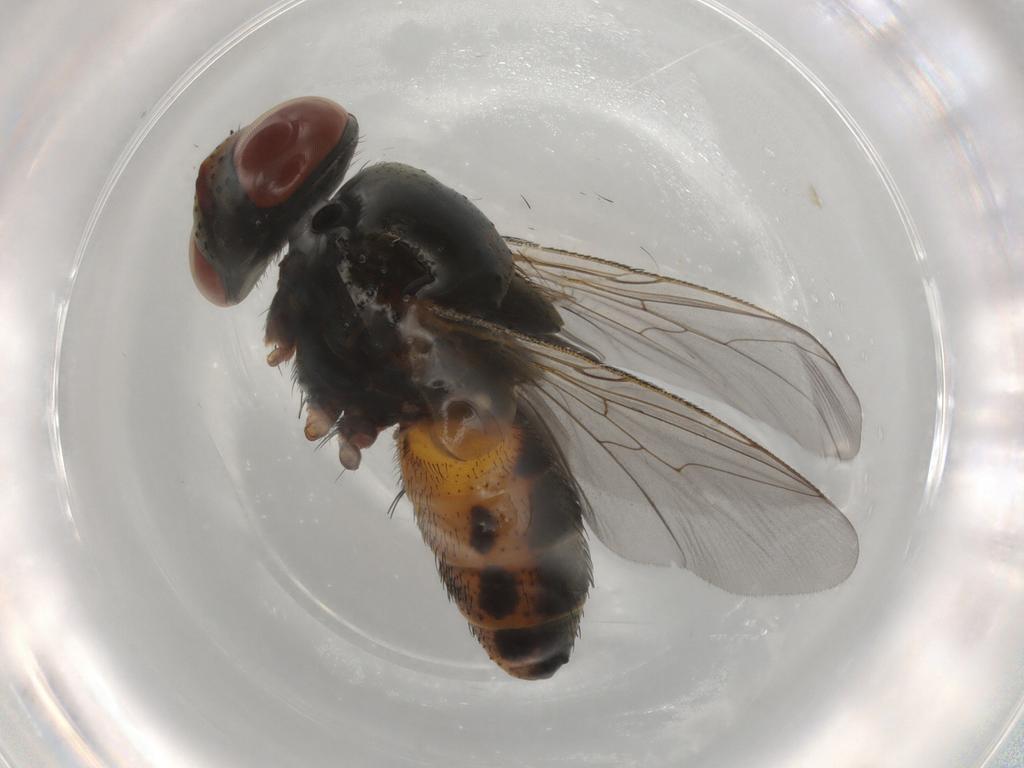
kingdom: Animalia
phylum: Arthropoda
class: Insecta
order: Diptera
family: Sarcophagidae
